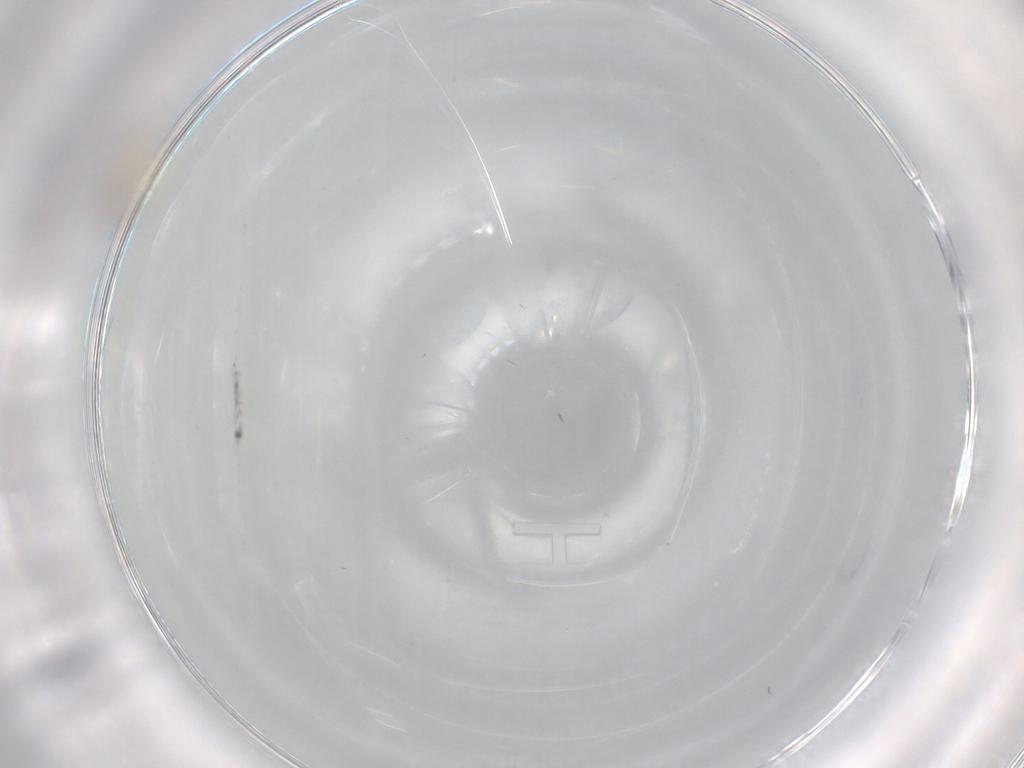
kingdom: Animalia
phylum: Arthropoda
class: Insecta
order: Diptera
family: Cecidomyiidae
